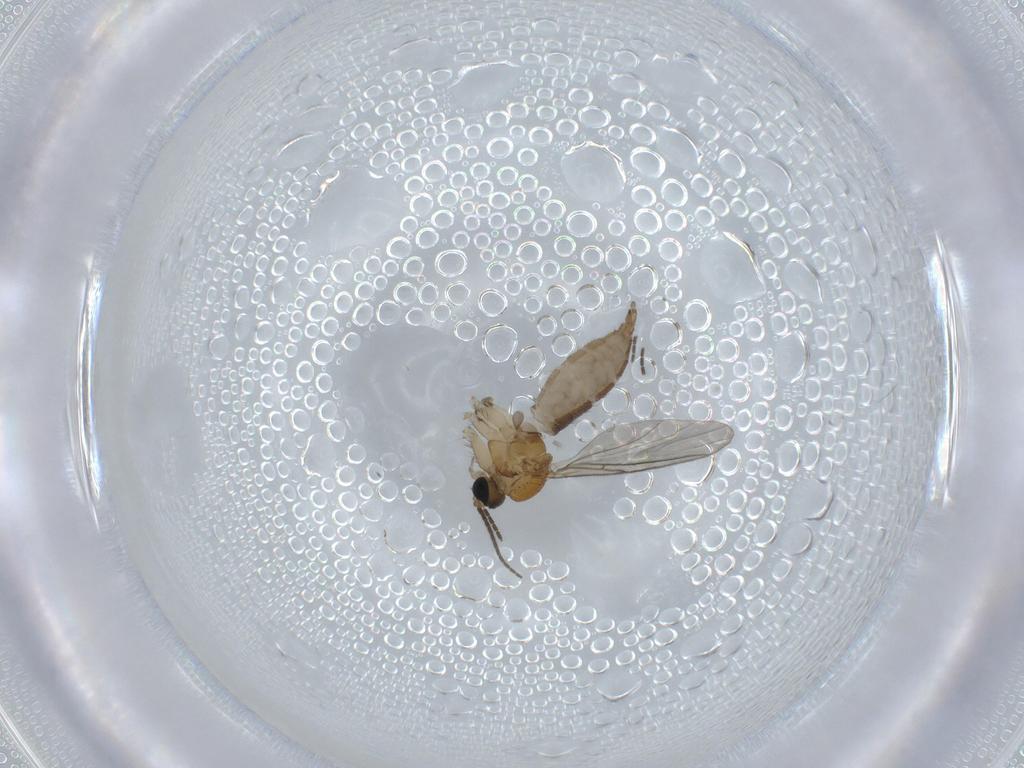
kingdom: Animalia
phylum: Arthropoda
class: Insecta
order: Diptera
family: Sciaridae
